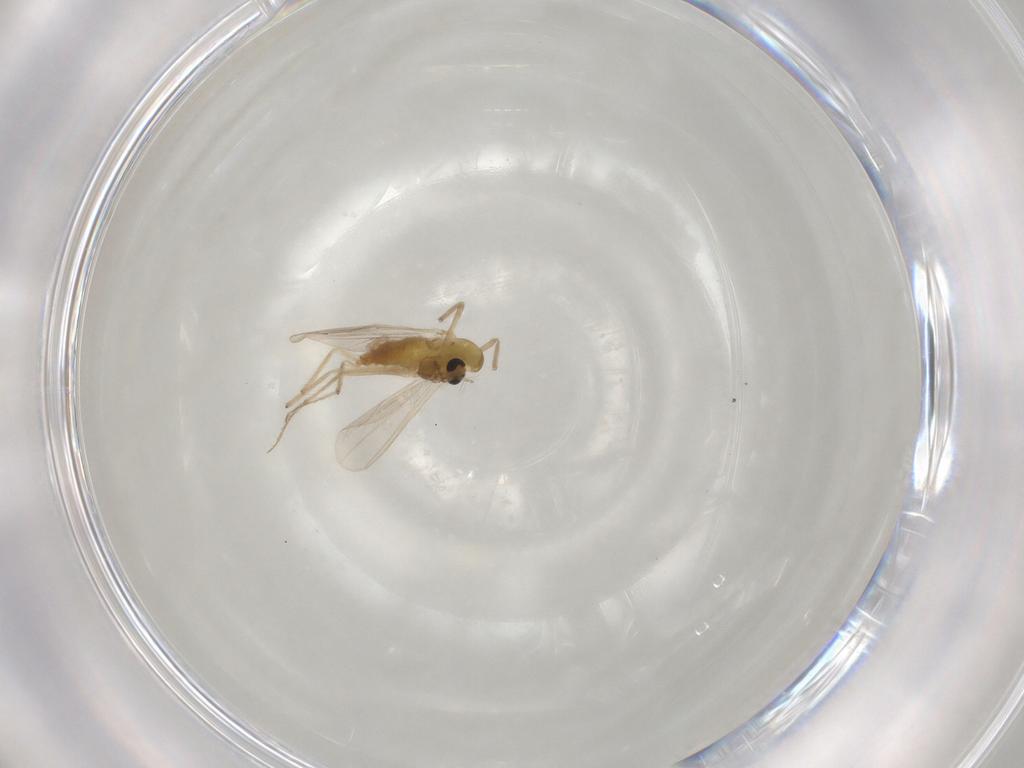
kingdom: Animalia
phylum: Arthropoda
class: Insecta
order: Diptera
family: Chironomidae
